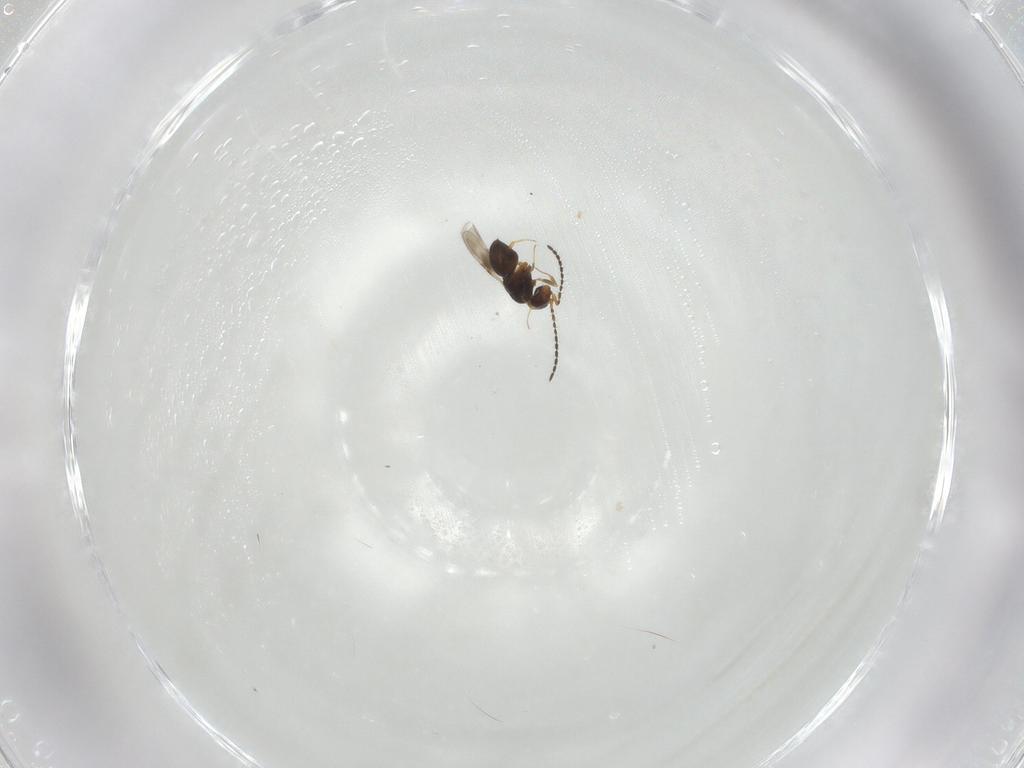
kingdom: Animalia
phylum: Arthropoda
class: Insecta
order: Hymenoptera
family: Ceraphronidae
